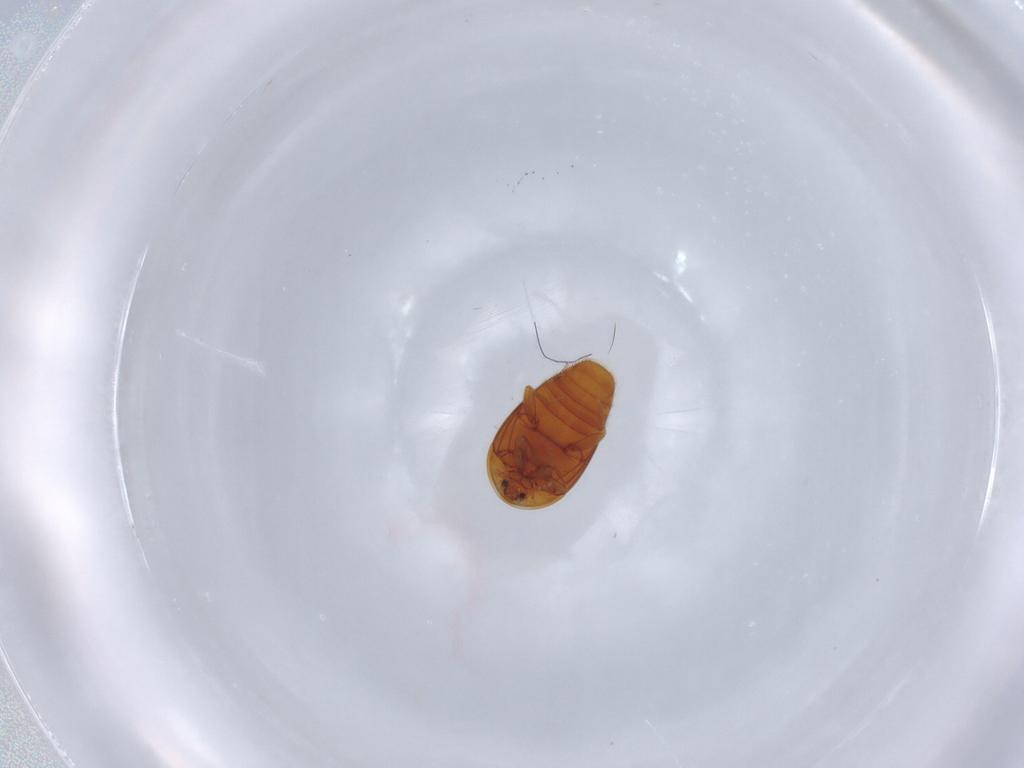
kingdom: Animalia
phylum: Arthropoda
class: Insecta
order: Coleoptera
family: Corylophidae
